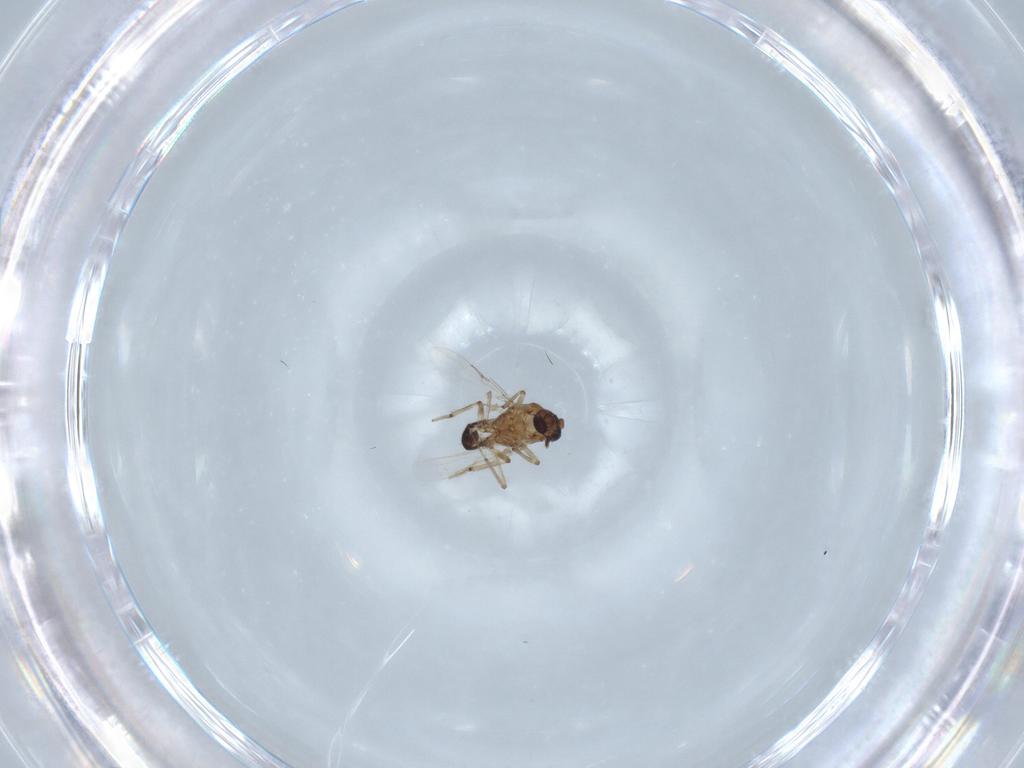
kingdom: Animalia
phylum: Arthropoda
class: Insecta
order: Diptera
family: Ceratopogonidae
